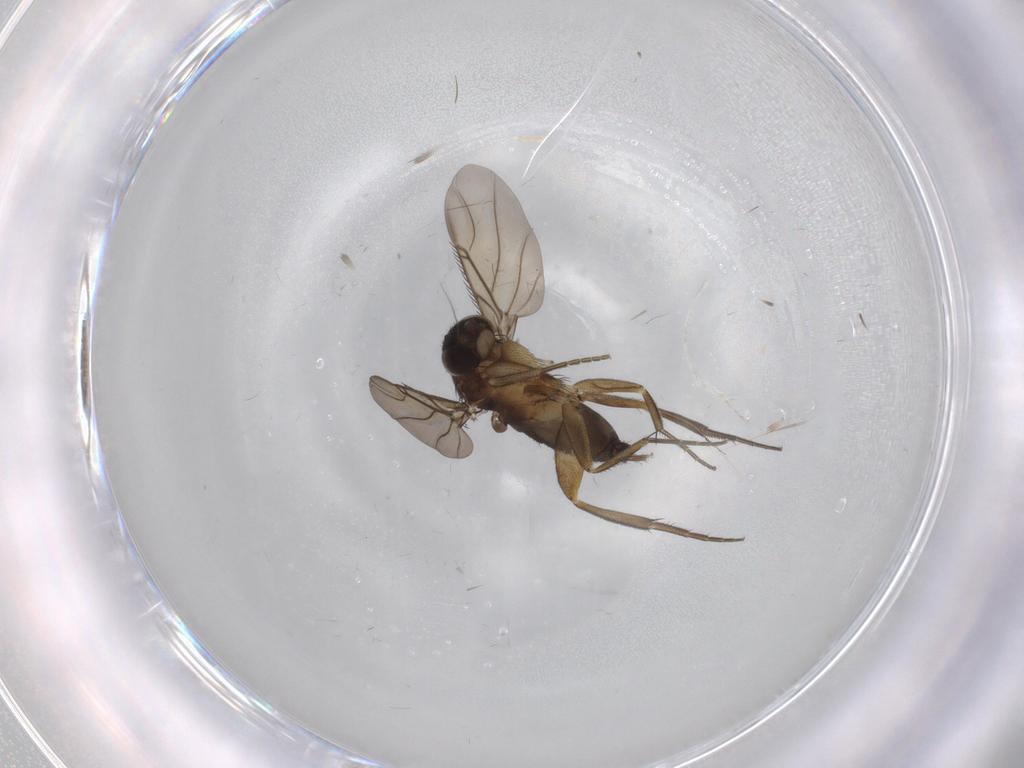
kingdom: Animalia
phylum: Arthropoda
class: Insecta
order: Diptera
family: Phoridae
